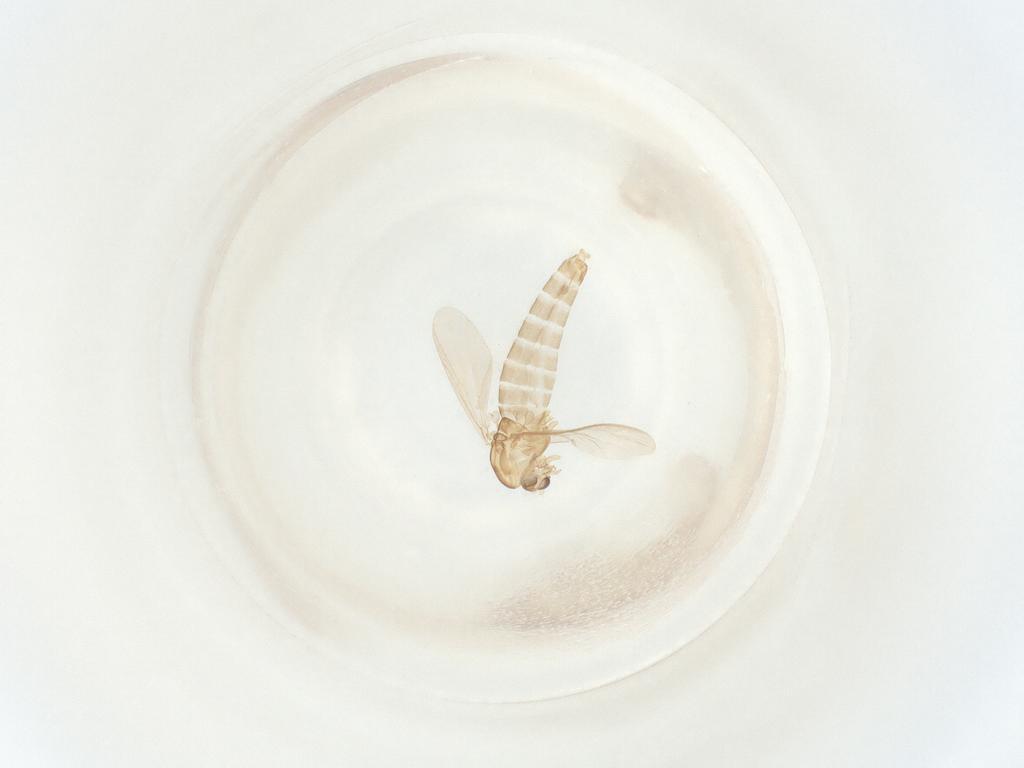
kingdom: Animalia
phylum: Arthropoda
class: Insecta
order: Diptera
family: Chironomidae
